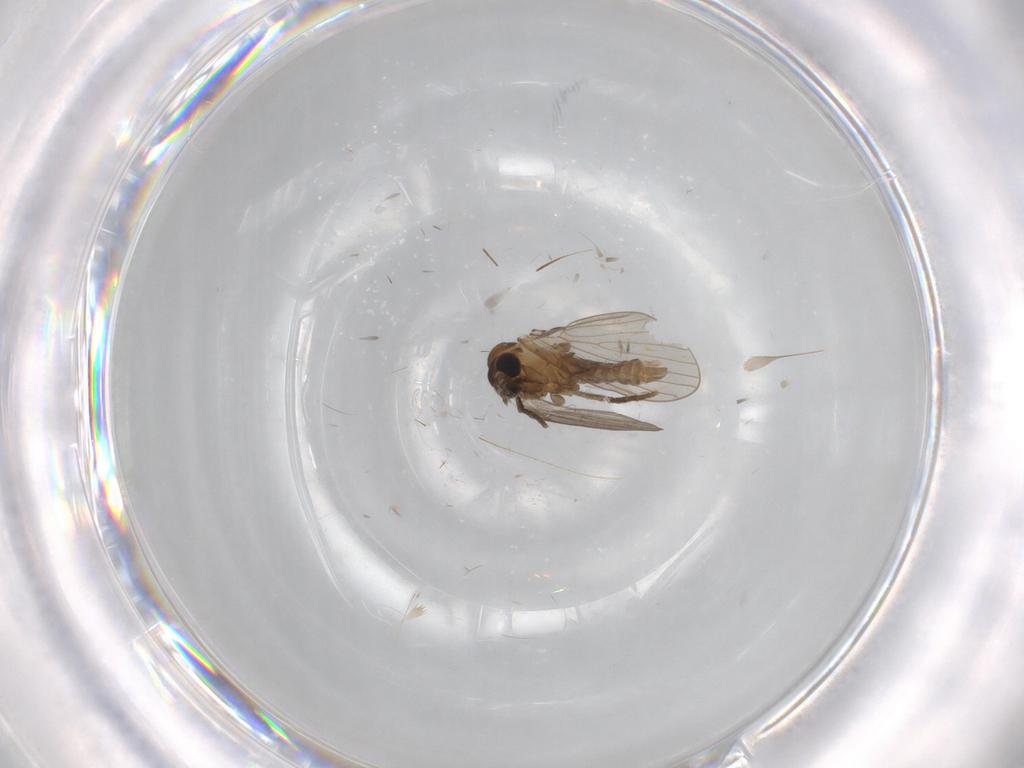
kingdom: Animalia
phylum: Arthropoda
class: Insecta
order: Diptera
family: Psychodidae
